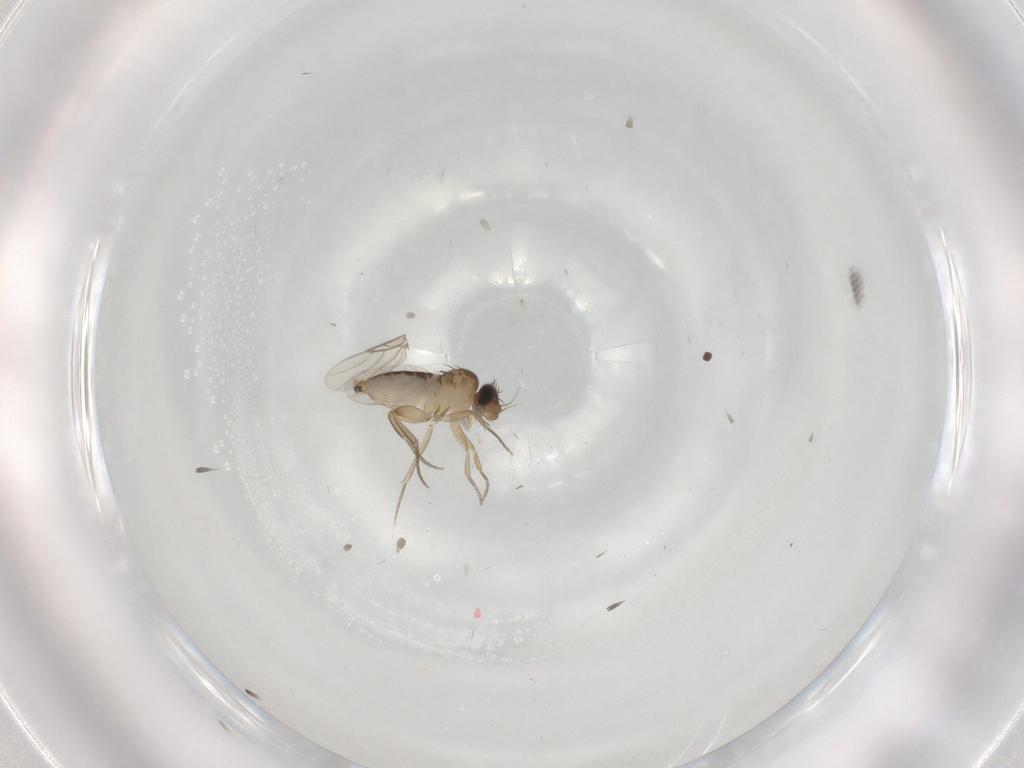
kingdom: Animalia
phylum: Arthropoda
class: Insecta
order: Diptera
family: Phoridae
